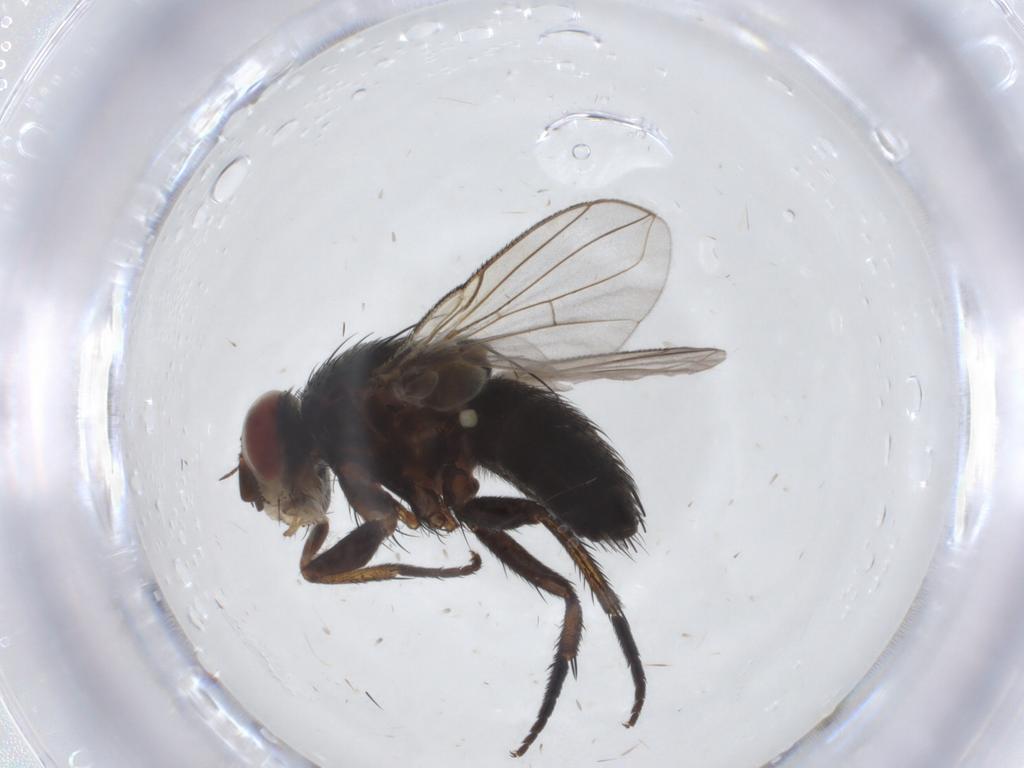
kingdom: Animalia
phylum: Arthropoda
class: Insecta
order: Diptera
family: Tachinidae
